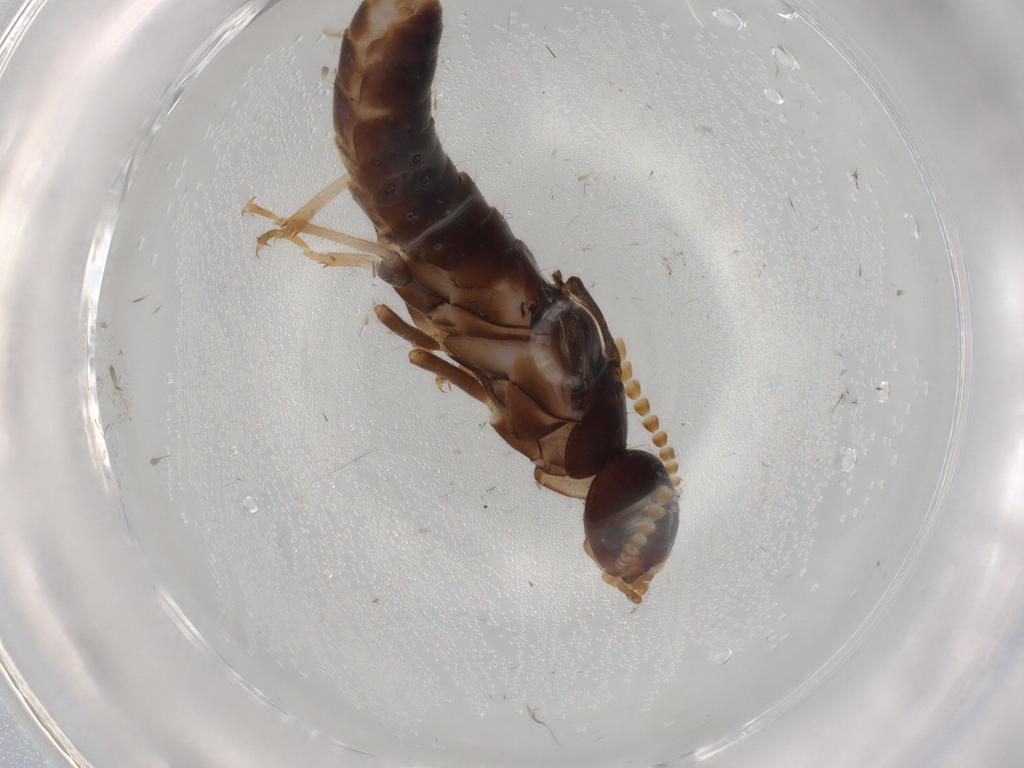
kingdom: Animalia
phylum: Arthropoda
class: Insecta
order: Blattodea
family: Kalotermitidae
